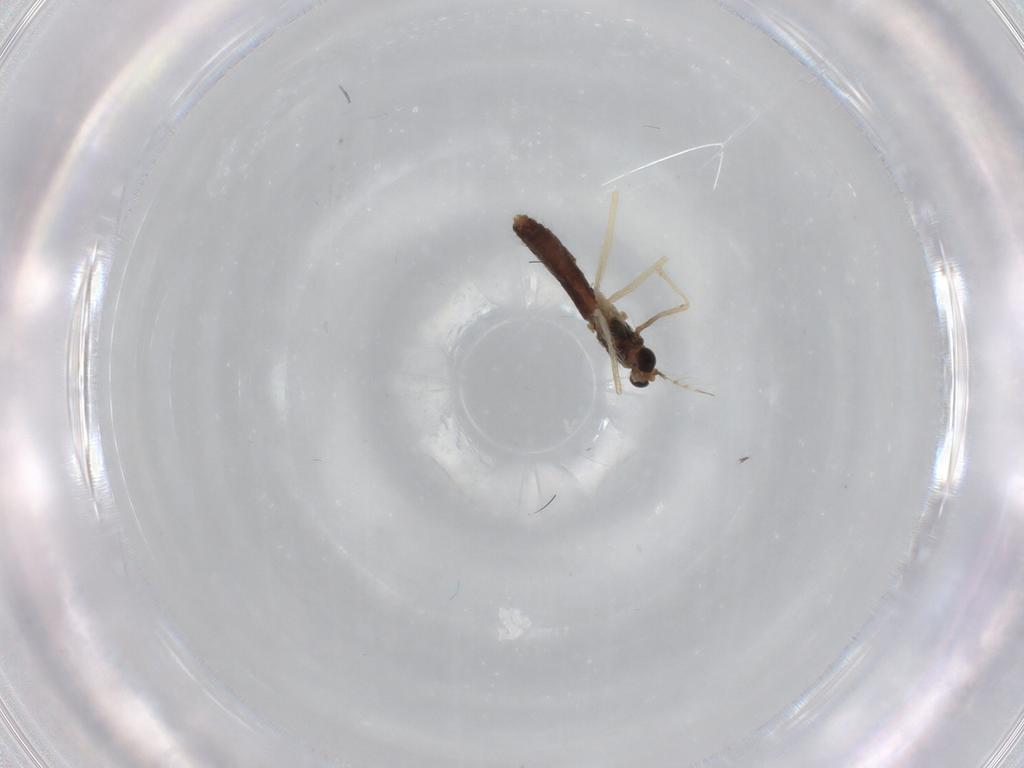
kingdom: Animalia
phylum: Arthropoda
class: Insecta
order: Diptera
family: Chironomidae
